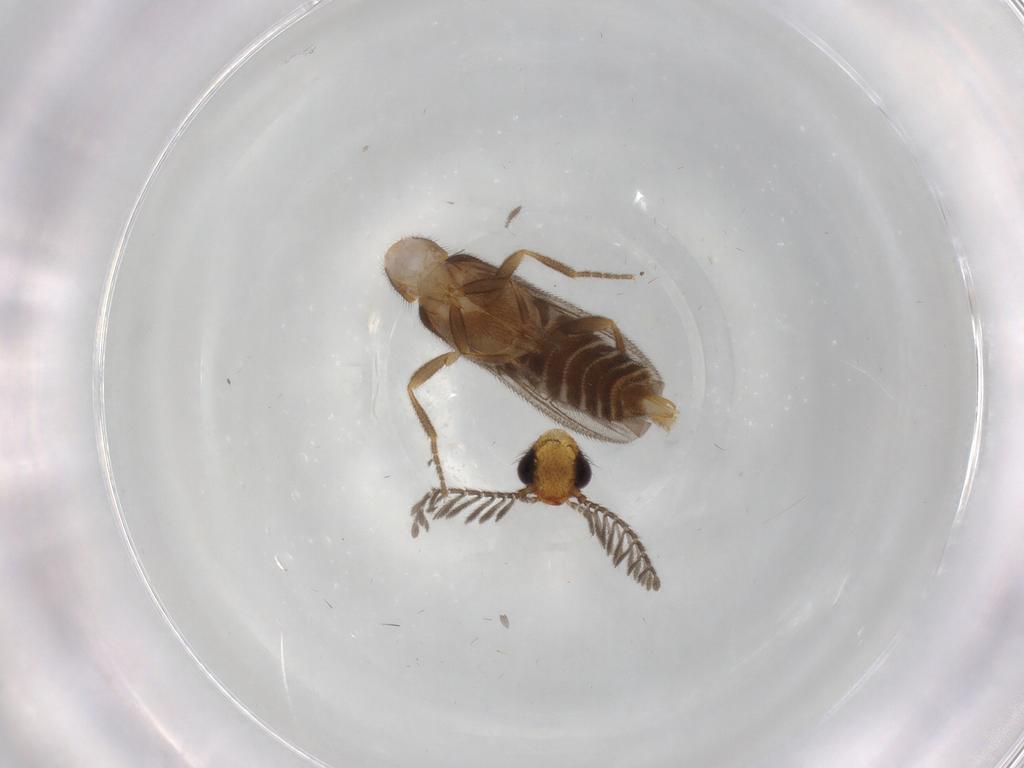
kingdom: Animalia
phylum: Arthropoda
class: Insecta
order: Coleoptera
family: Phengodidae
